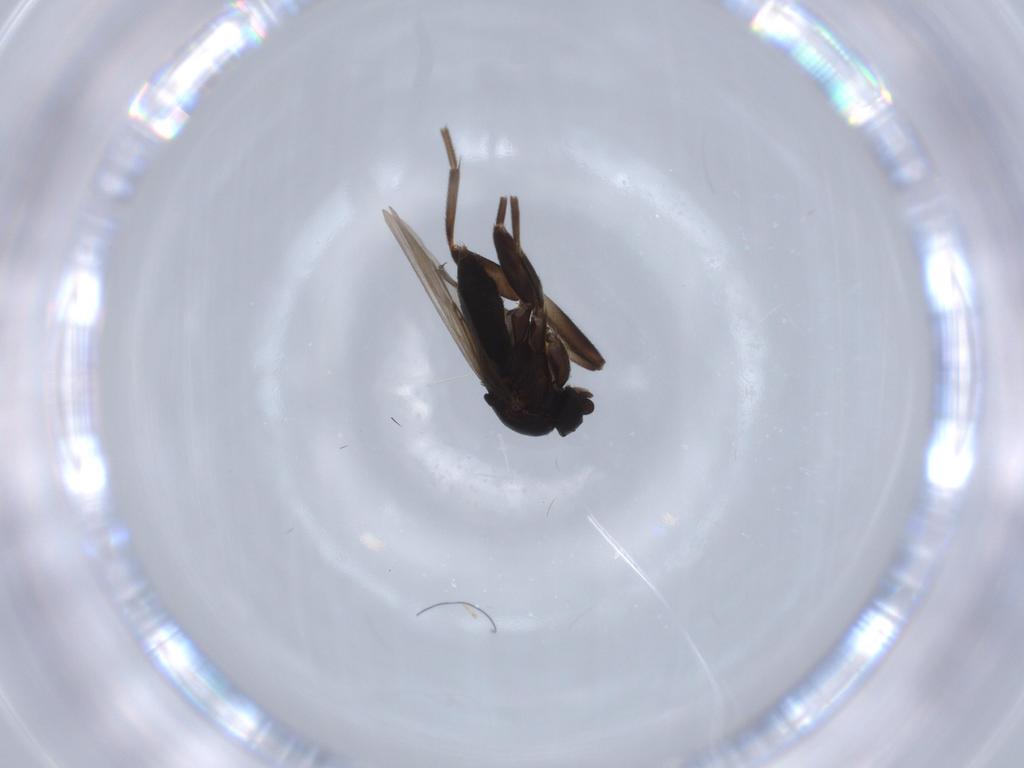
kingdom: Animalia
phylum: Arthropoda
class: Insecta
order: Diptera
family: Phoridae
